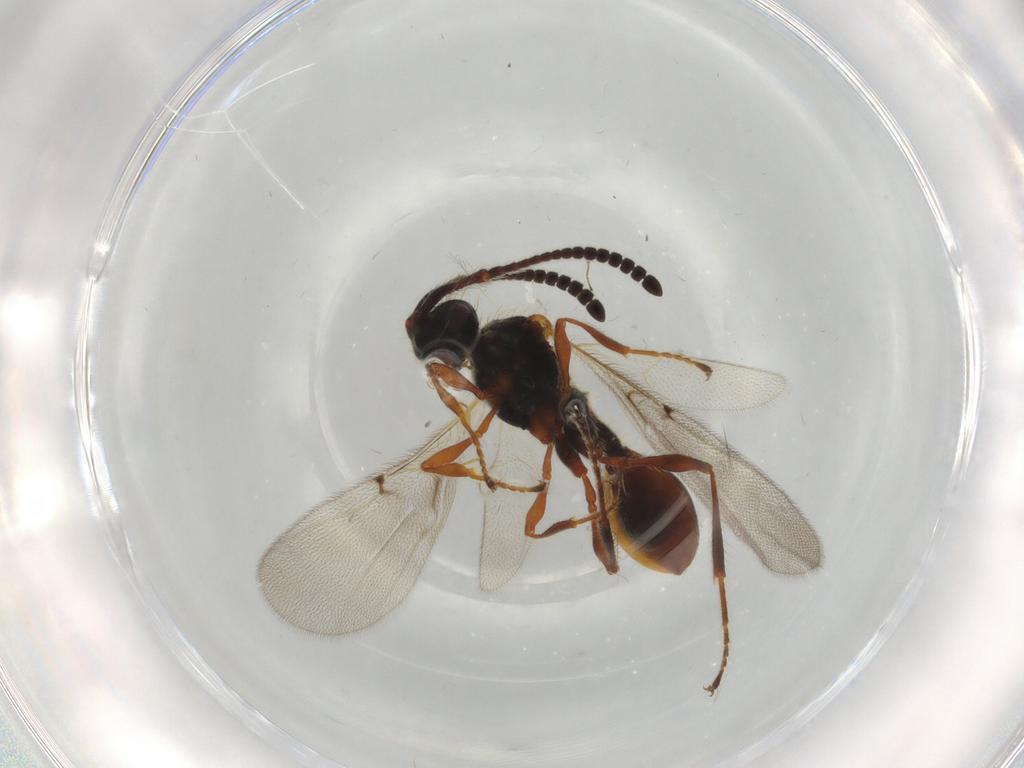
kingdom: Animalia
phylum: Arthropoda
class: Insecta
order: Hymenoptera
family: Diapriidae
